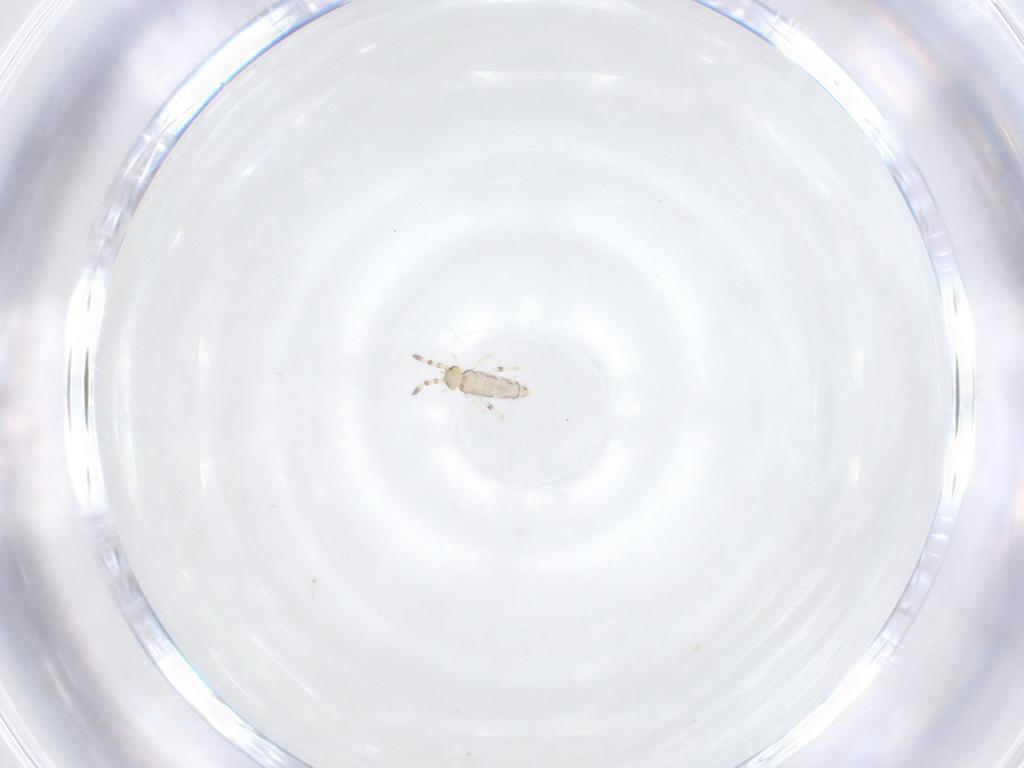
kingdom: Animalia
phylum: Arthropoda
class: Collembola
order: Entomobryomorpha
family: Isotomidae
